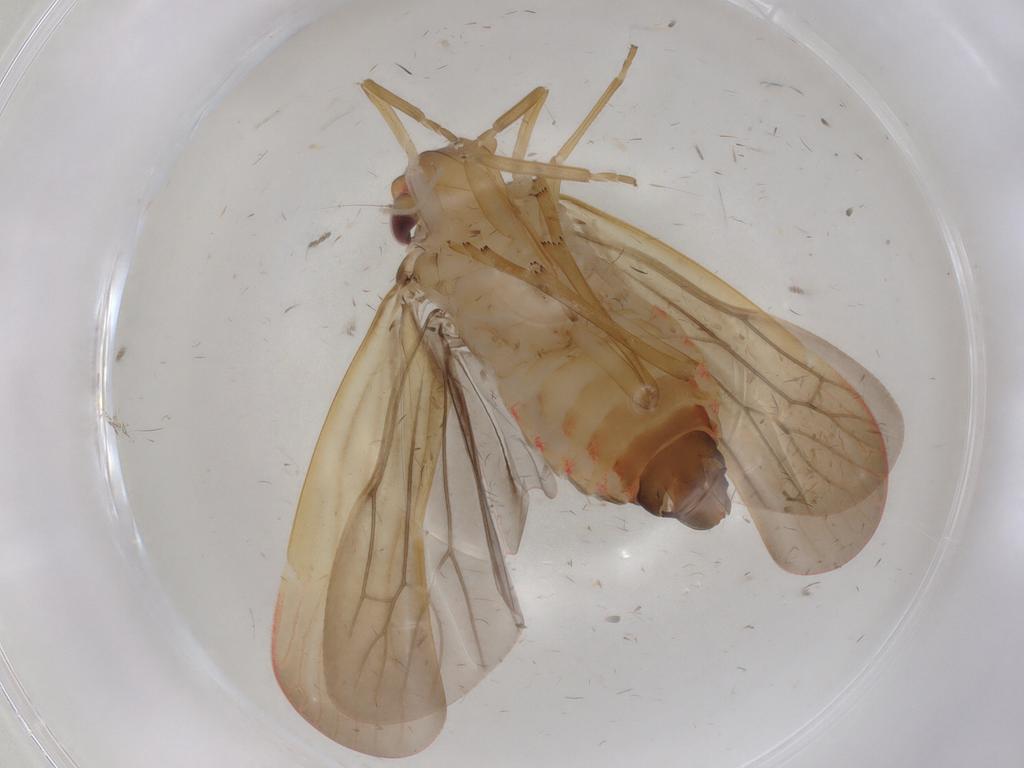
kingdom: Animalia
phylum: Arthropoda
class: Insecta
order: Hemiptera
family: Achilidae
